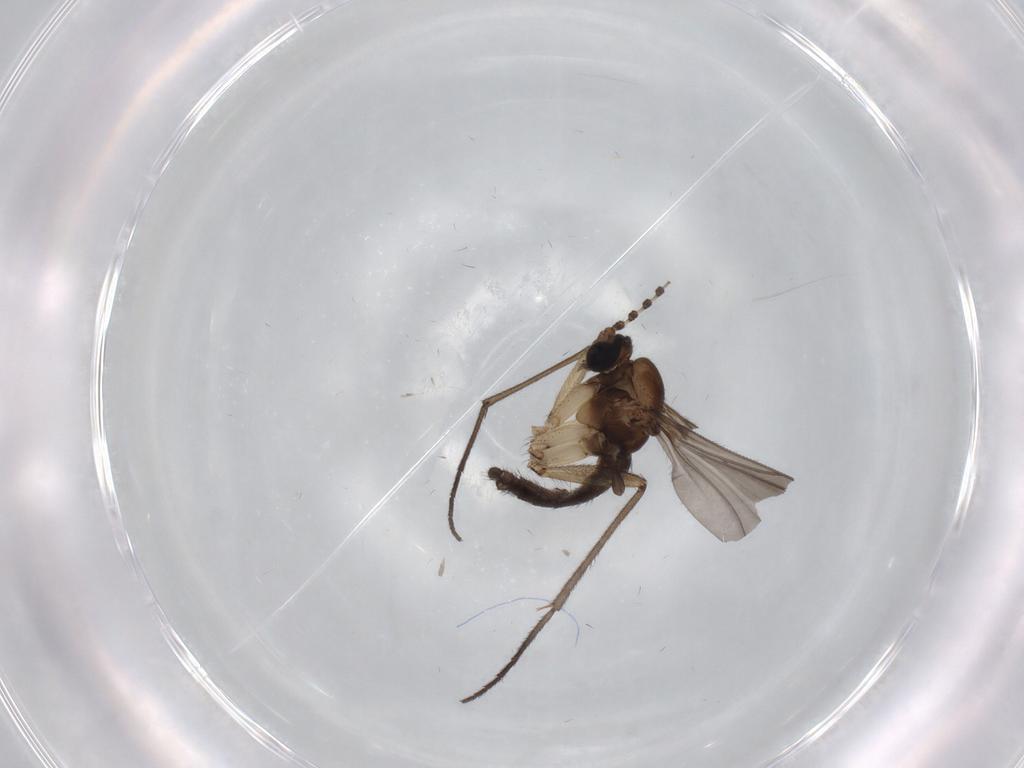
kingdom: Animalia
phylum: Arthropoda
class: Insecta
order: Diptera
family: Sciaridae
